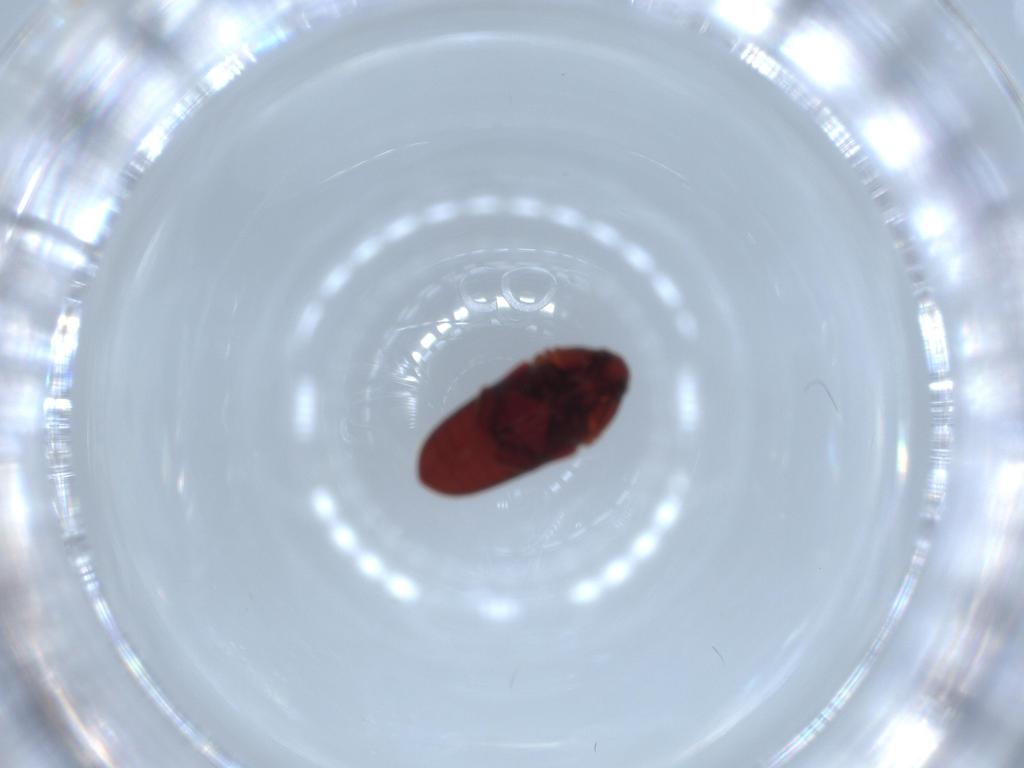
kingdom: Animalia
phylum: Arthropoda
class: Insecta
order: Coleoptera
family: Throscidae
